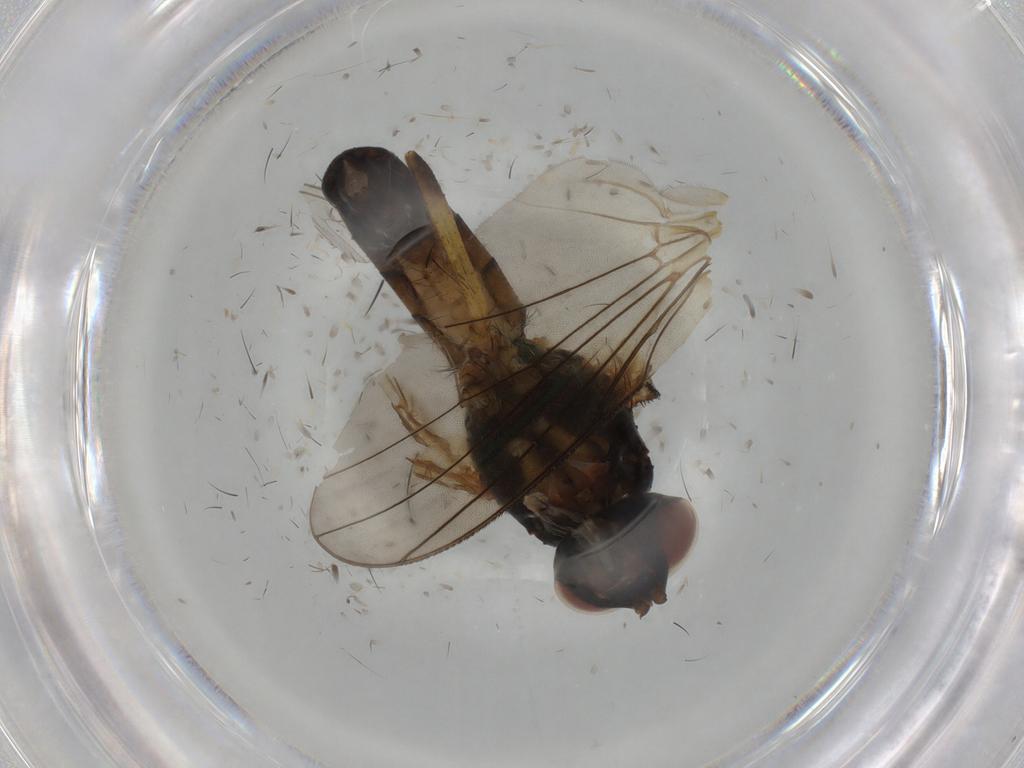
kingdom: Animalia
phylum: Arthropoda
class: Insecta
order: Diptera
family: Anthomyiidae
